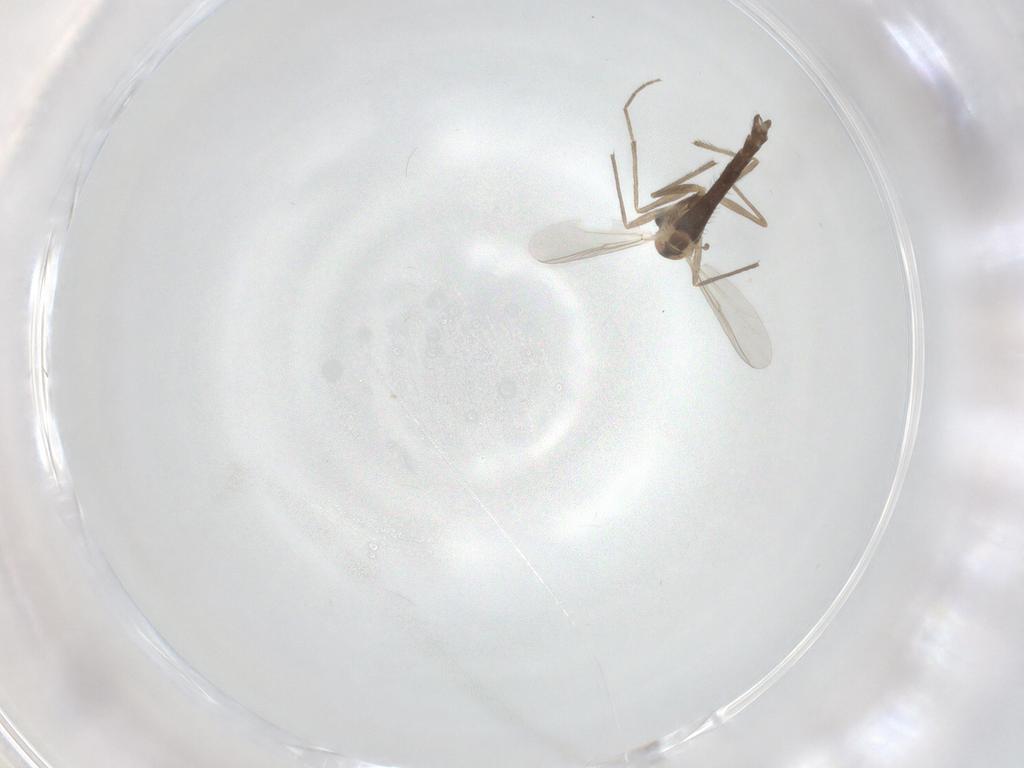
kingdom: Animalia
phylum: Arthropoda
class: Insecta
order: Diptera
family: Chironomidae
